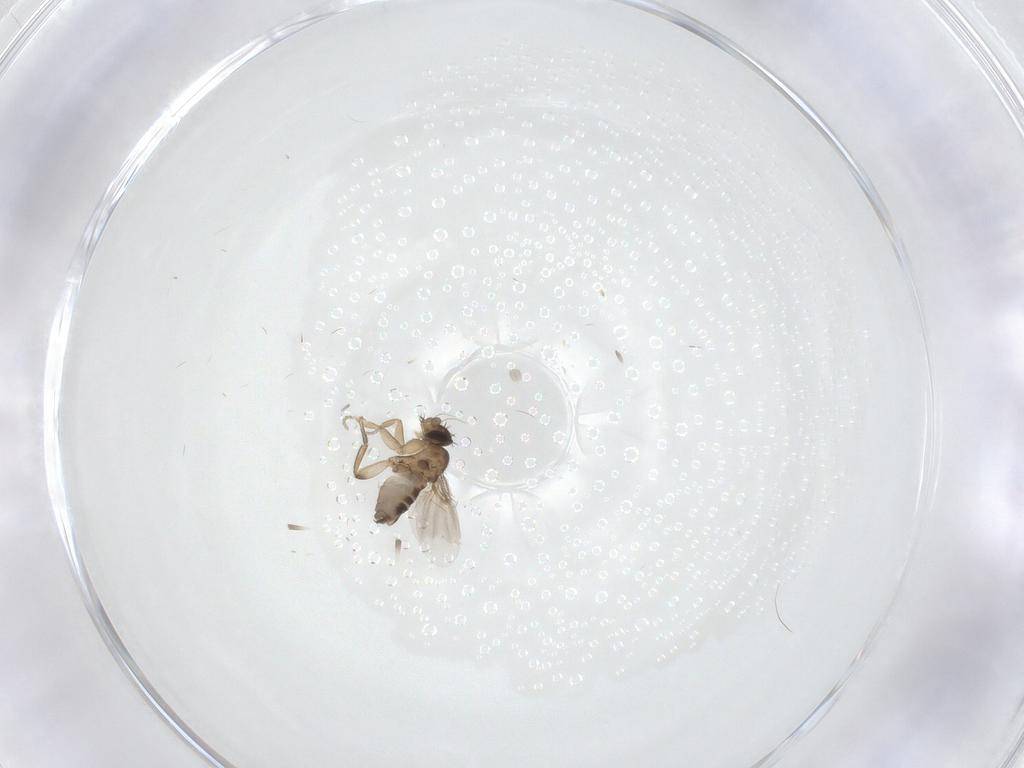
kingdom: Animalia
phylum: Arthropoda
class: Insecta
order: Diptera
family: Phoridae
